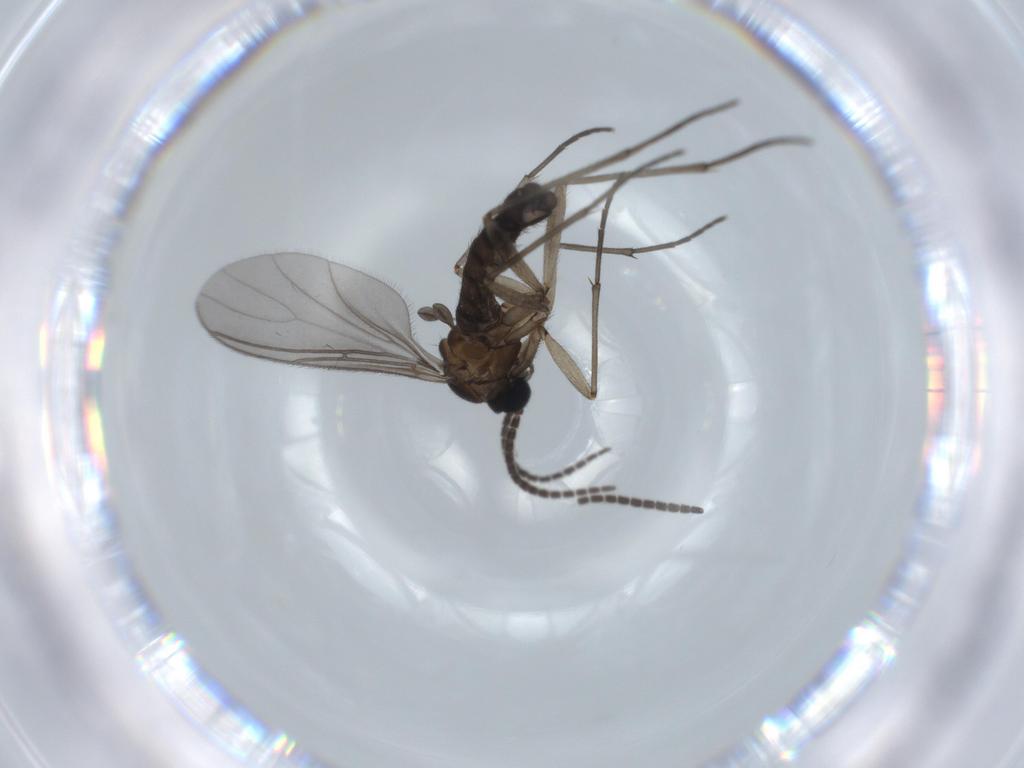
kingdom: Animalia
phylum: Arthropoda
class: Insecta
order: Diptera
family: Sciaridae
